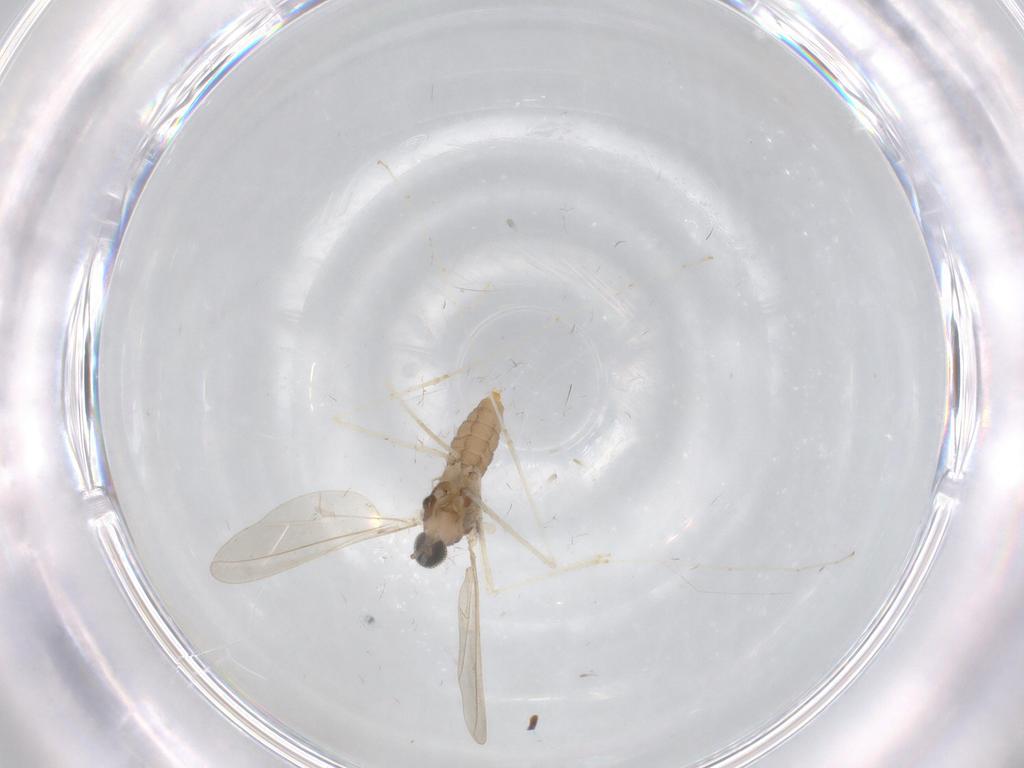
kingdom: Animalia
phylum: Arthropoda
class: Insecta
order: Diptera
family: Cecidomyiidae
